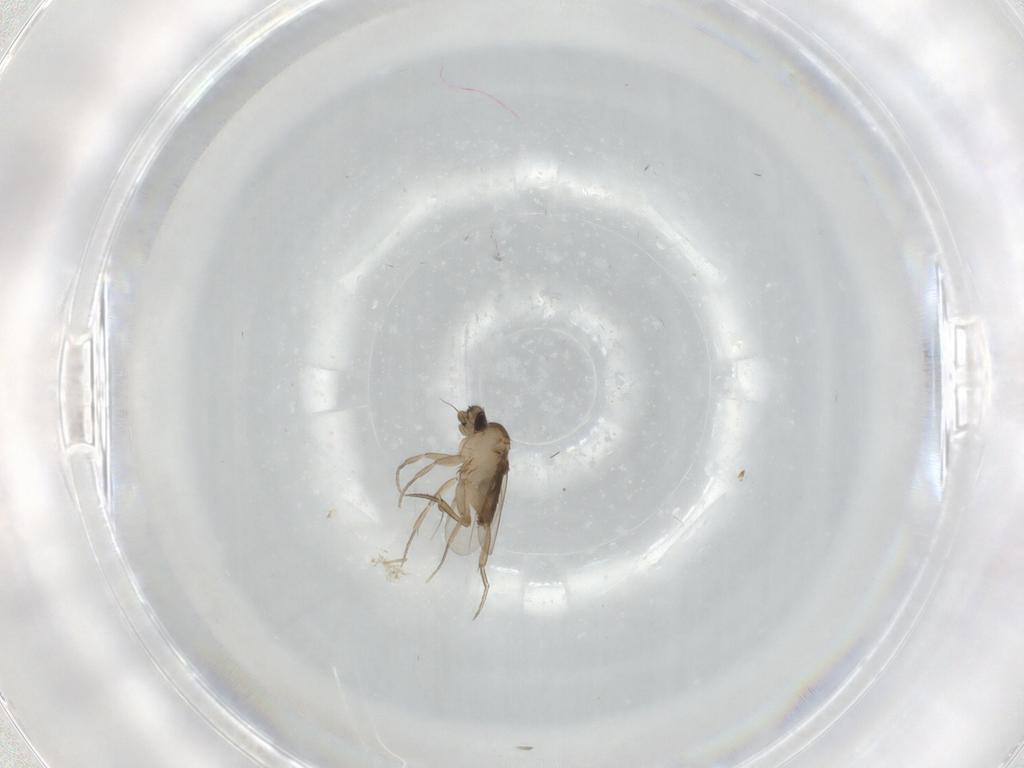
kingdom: Animalia
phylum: Arthropoda
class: Insecta
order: Diptera
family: Phoridae
